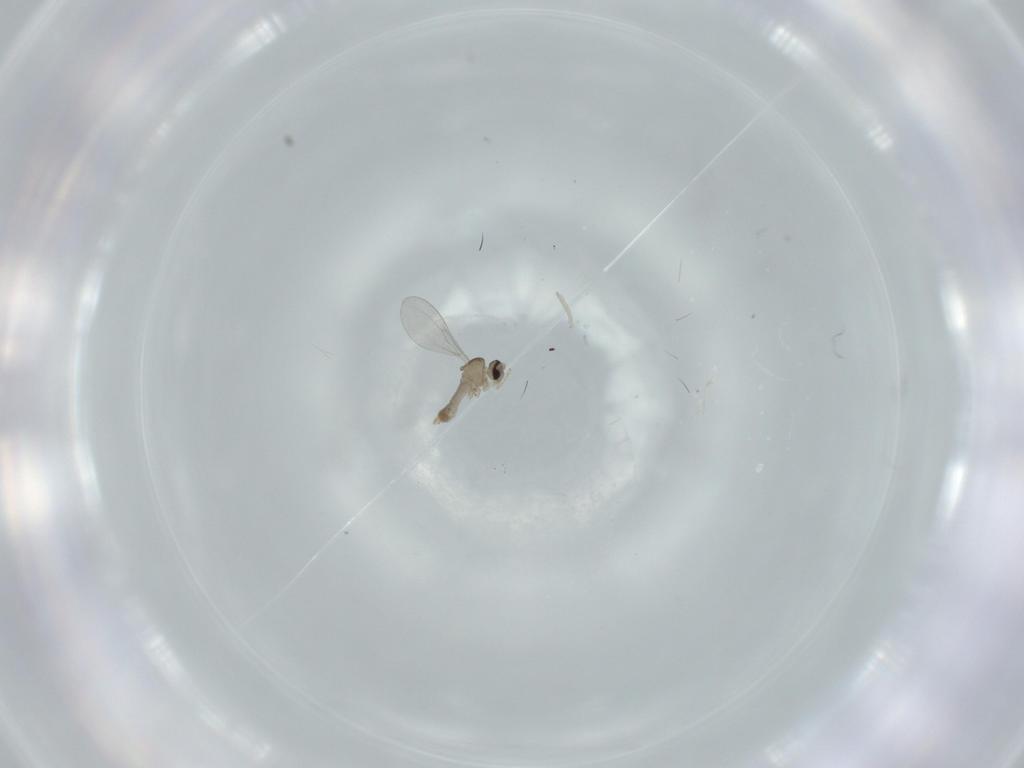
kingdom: Animalia
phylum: Arthropoda
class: Insecta
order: Diptera
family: Cecidomyiidae
